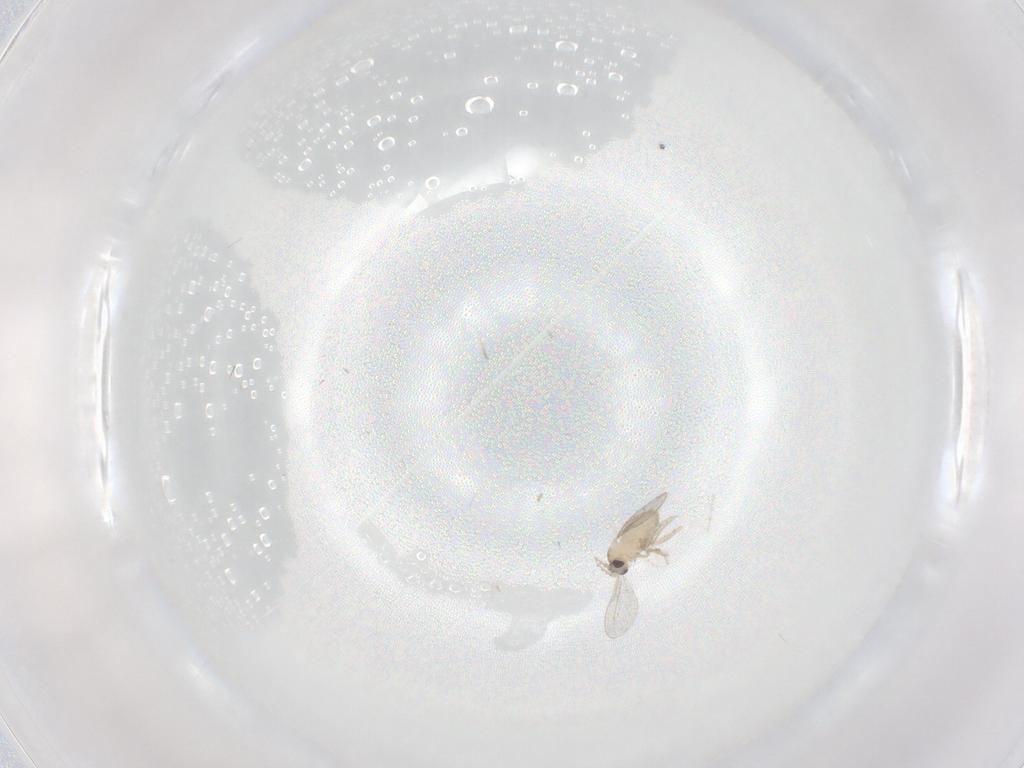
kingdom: Animalia
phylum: Arthropoda
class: Insecta
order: Diptera
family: Cecidomyiidae
